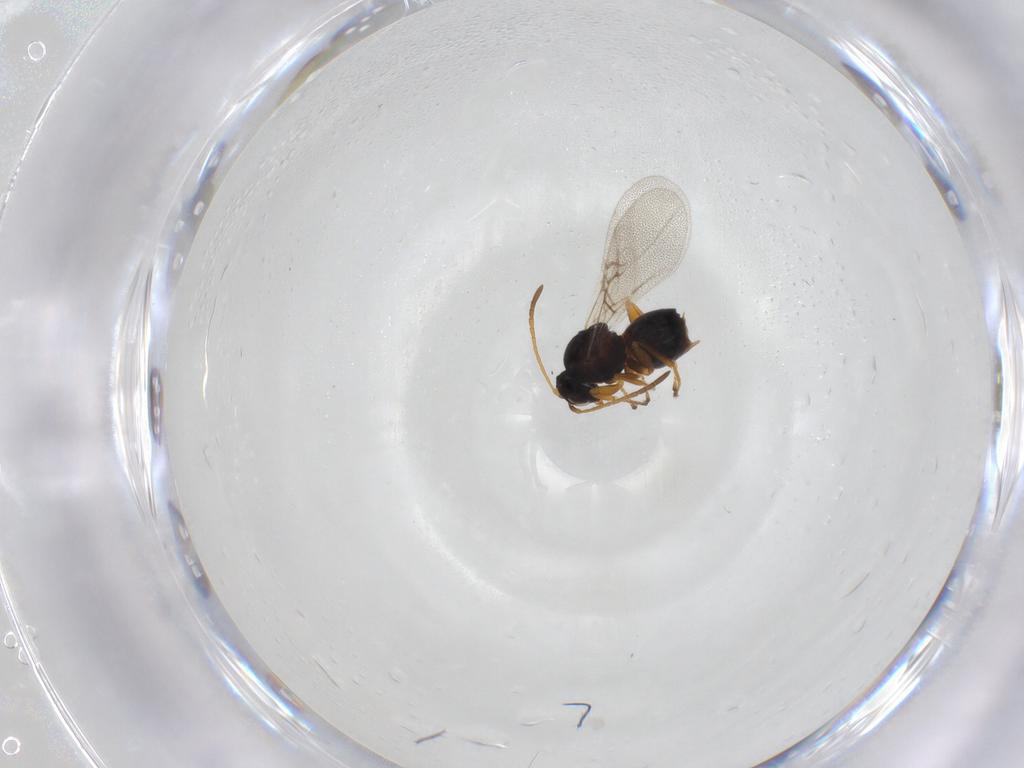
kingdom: Animalia
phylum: Arthropoda
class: Insecta
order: Hymenoptera
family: Cynipidae
